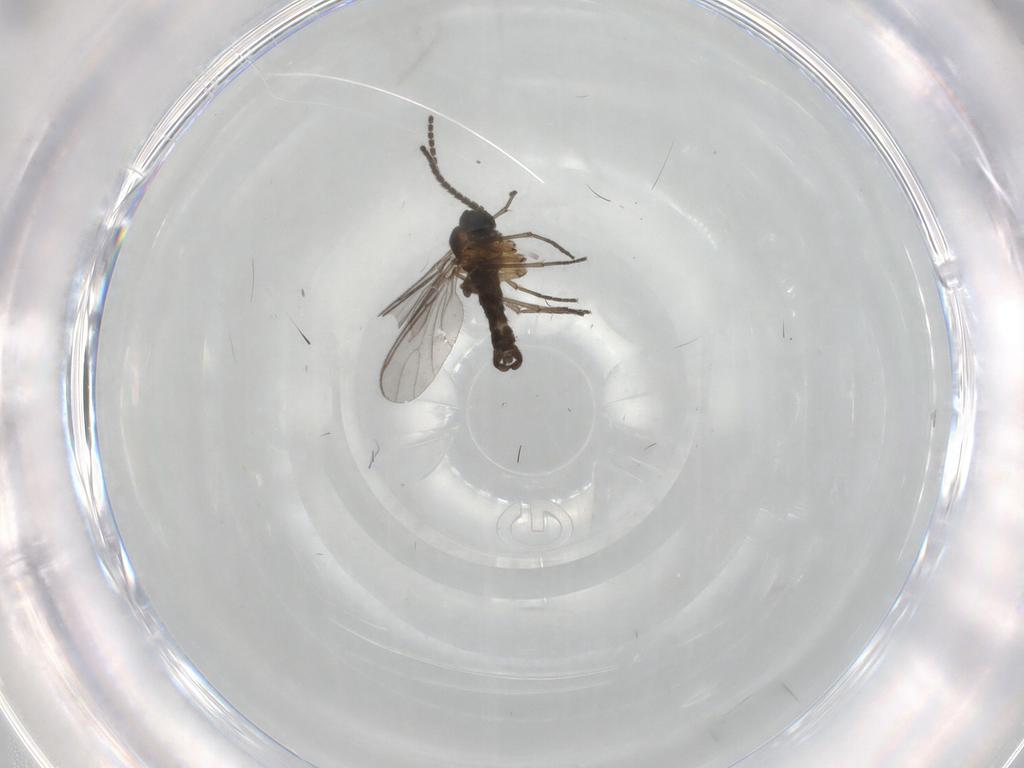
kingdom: Animalia
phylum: Arthropoda
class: Insecta
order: Diptera
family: Sciaridae
